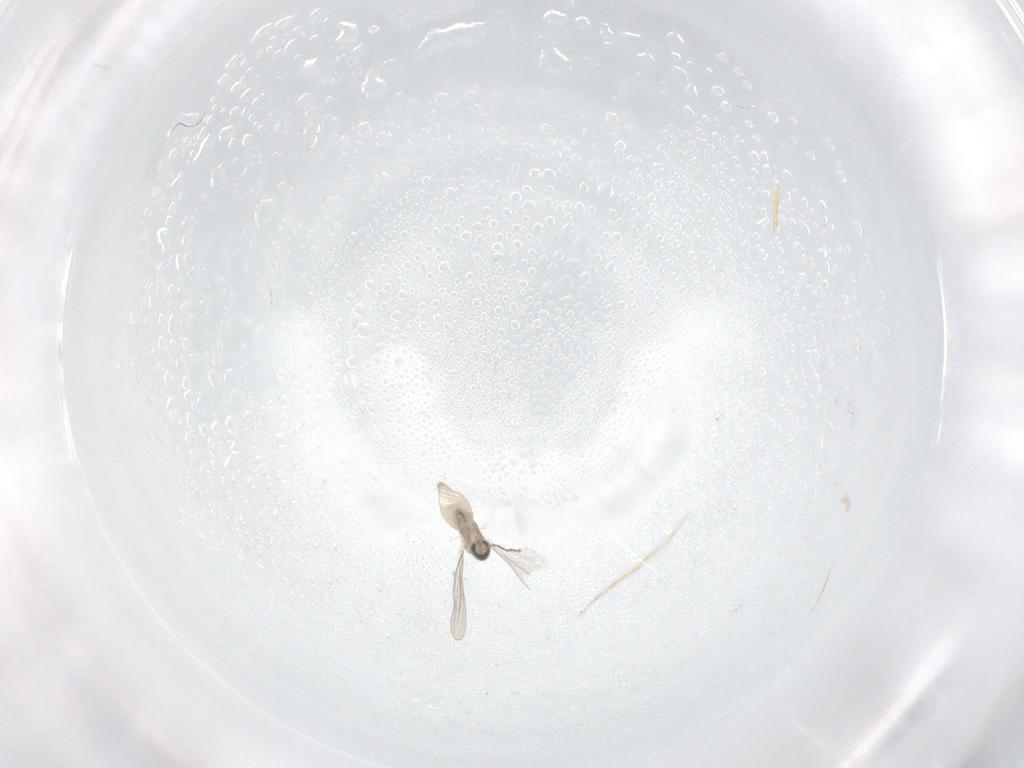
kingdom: Animalia
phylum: Arthropoda
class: Insecta
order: Diptera
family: Cecidomyiidae
